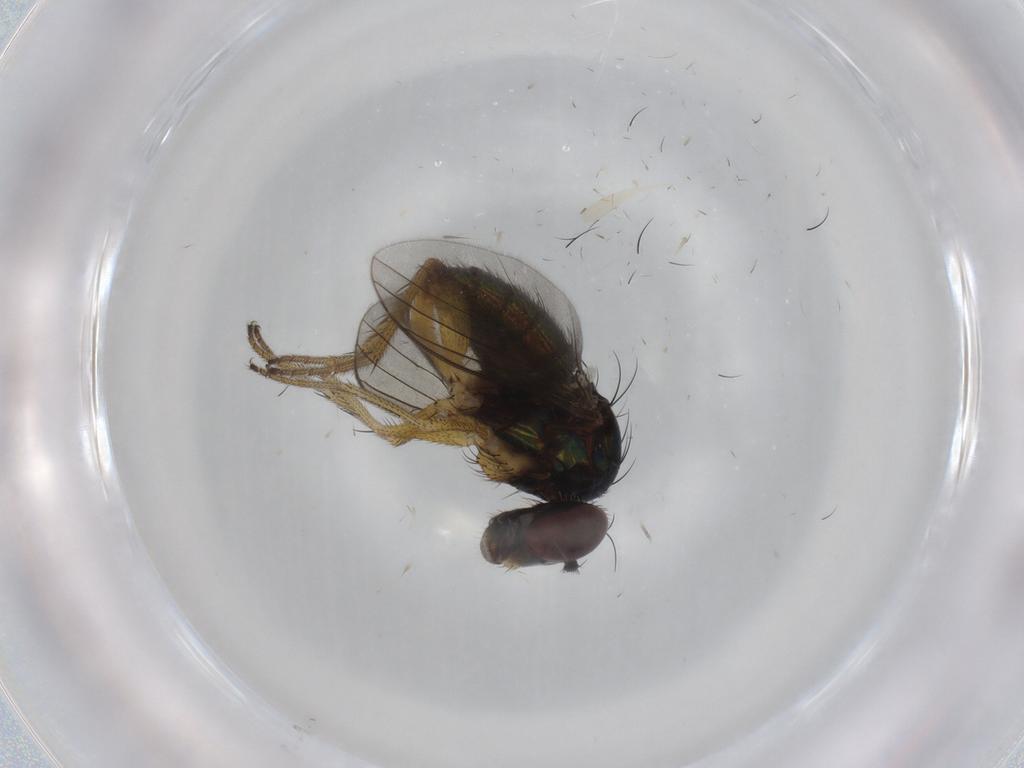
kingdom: Animalia
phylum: Arthropoda
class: Insecta
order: Diptera
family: Dolichopodidae
